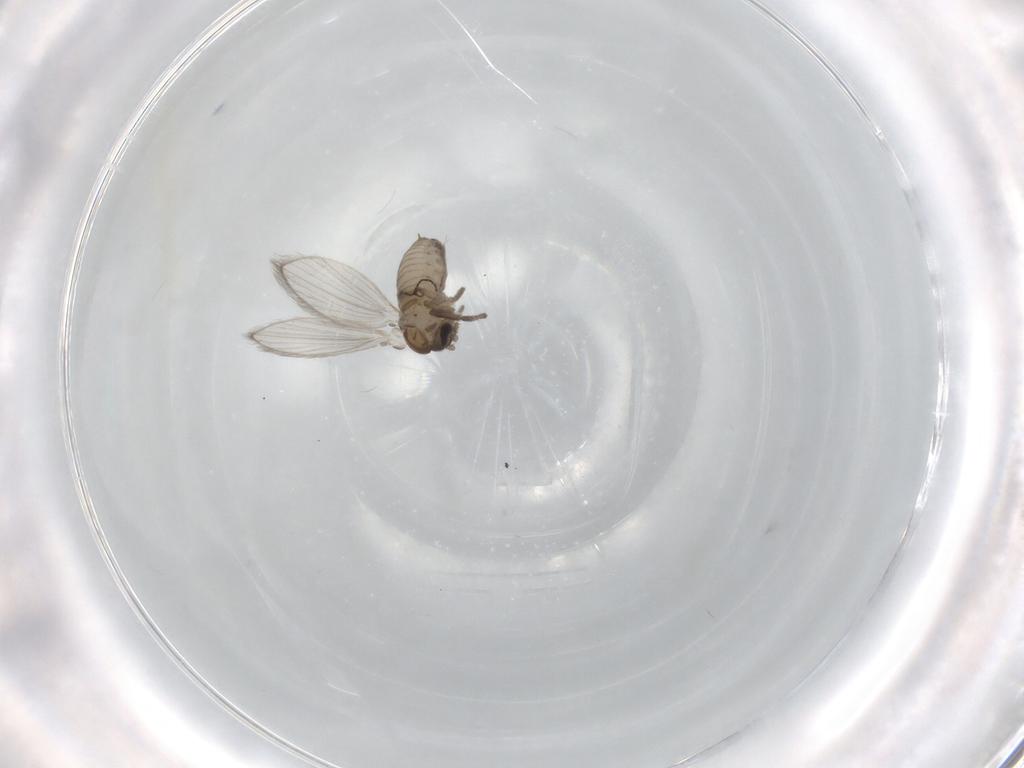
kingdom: Animalia
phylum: Arthropoda
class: Insecta
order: Diptera
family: Psychodidae
